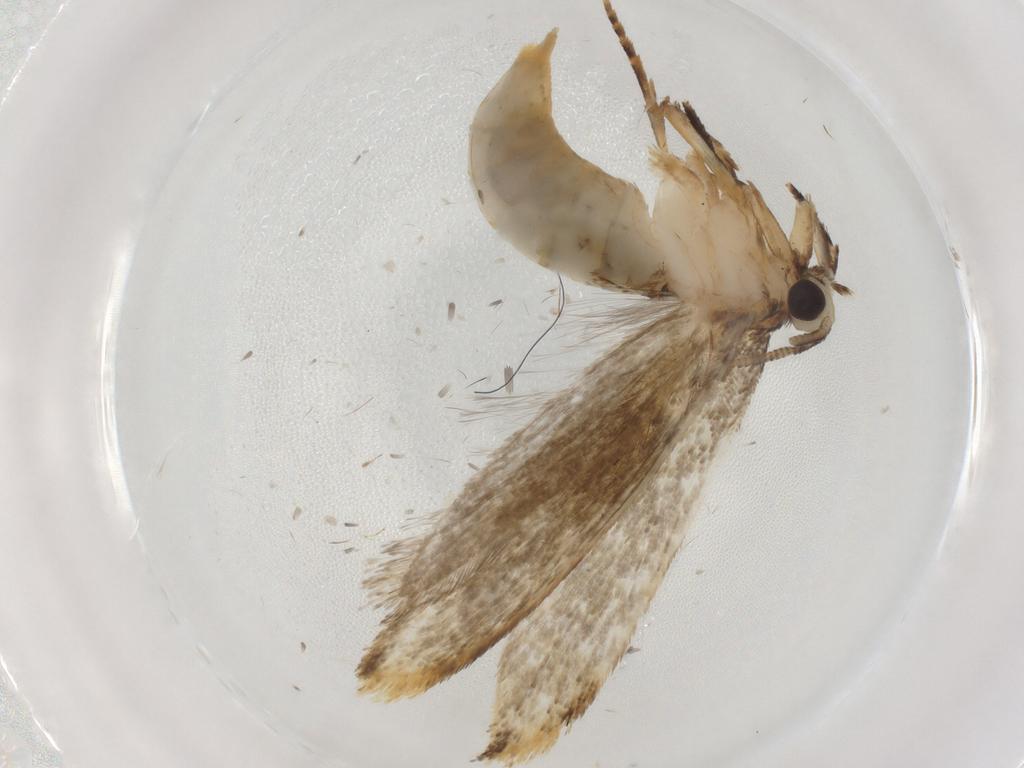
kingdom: Animalia
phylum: Arthropoda
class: Insecta
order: Lepidoptera
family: Tineidae
